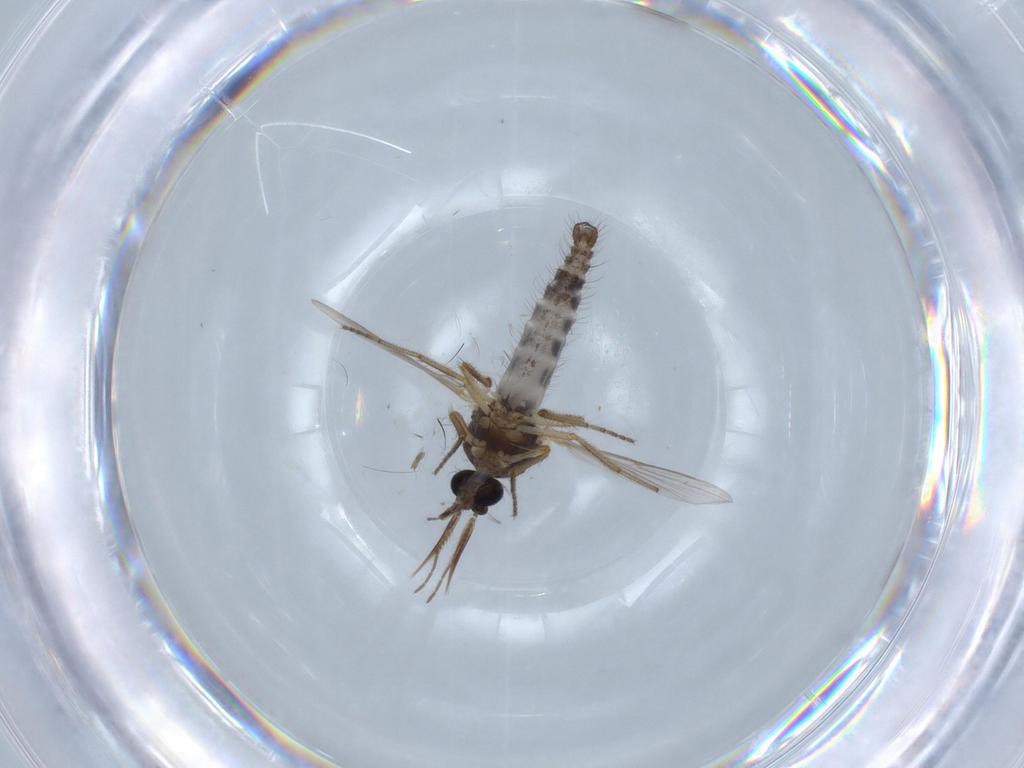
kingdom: Animalia
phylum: Arthropoda
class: Insecta
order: Diptera
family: Ceratopogonidae
